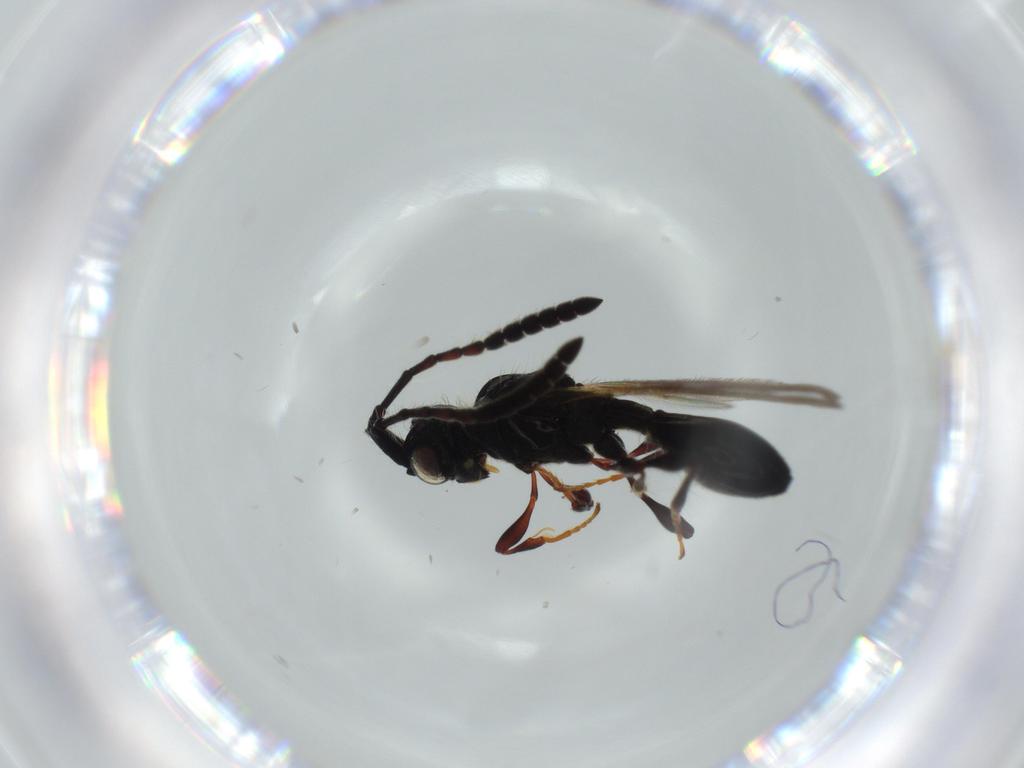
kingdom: Animalia
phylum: Arthropoda
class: Insecta
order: Hymenoptera
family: Diapriidae
